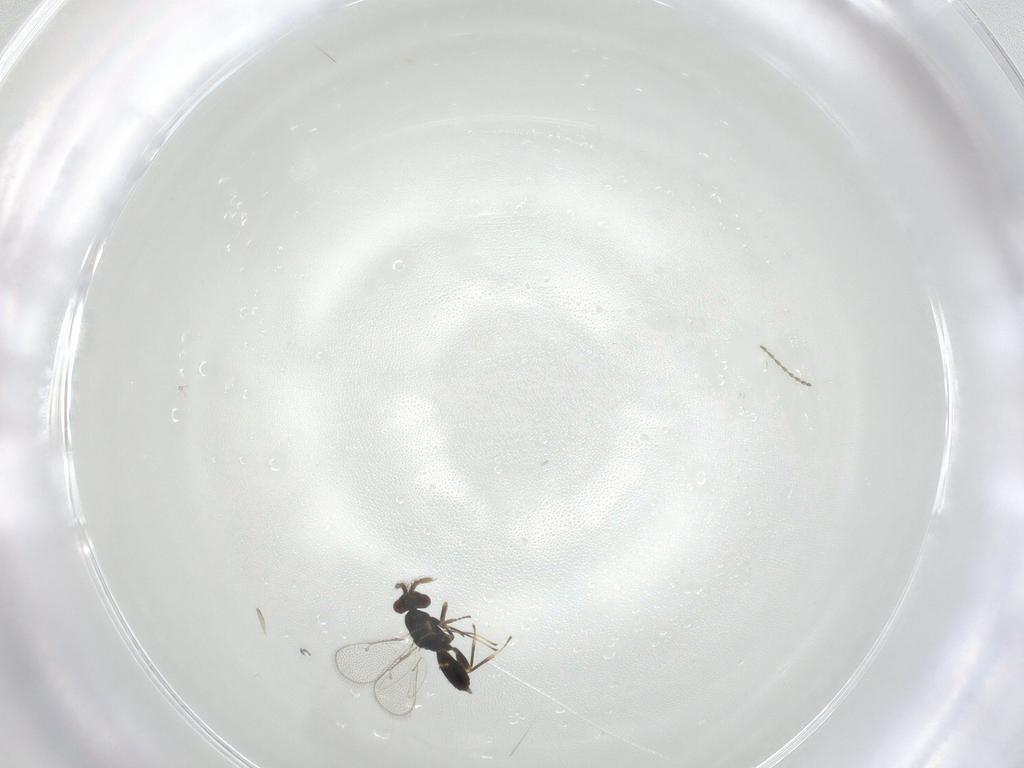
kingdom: Animalia
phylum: Arthropoda
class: Insecta
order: Hymenoptera
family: Eulophidae
